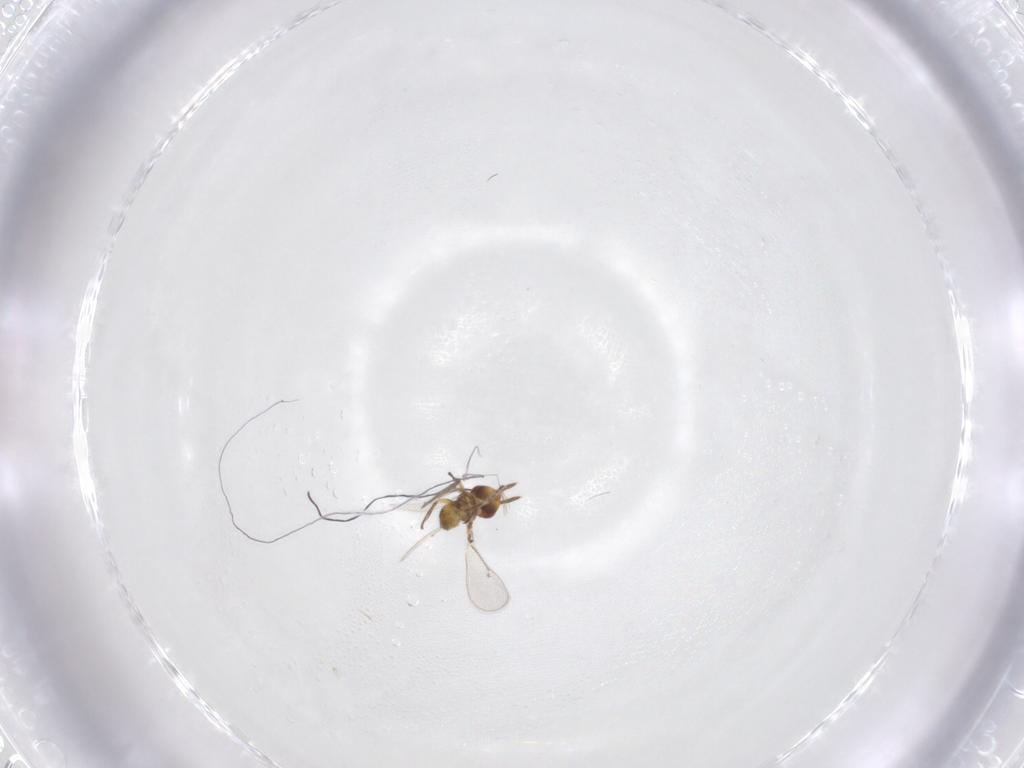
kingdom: Animalia
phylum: Arthropoda
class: Insecta
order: Hymenoptera
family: Eulophidae
